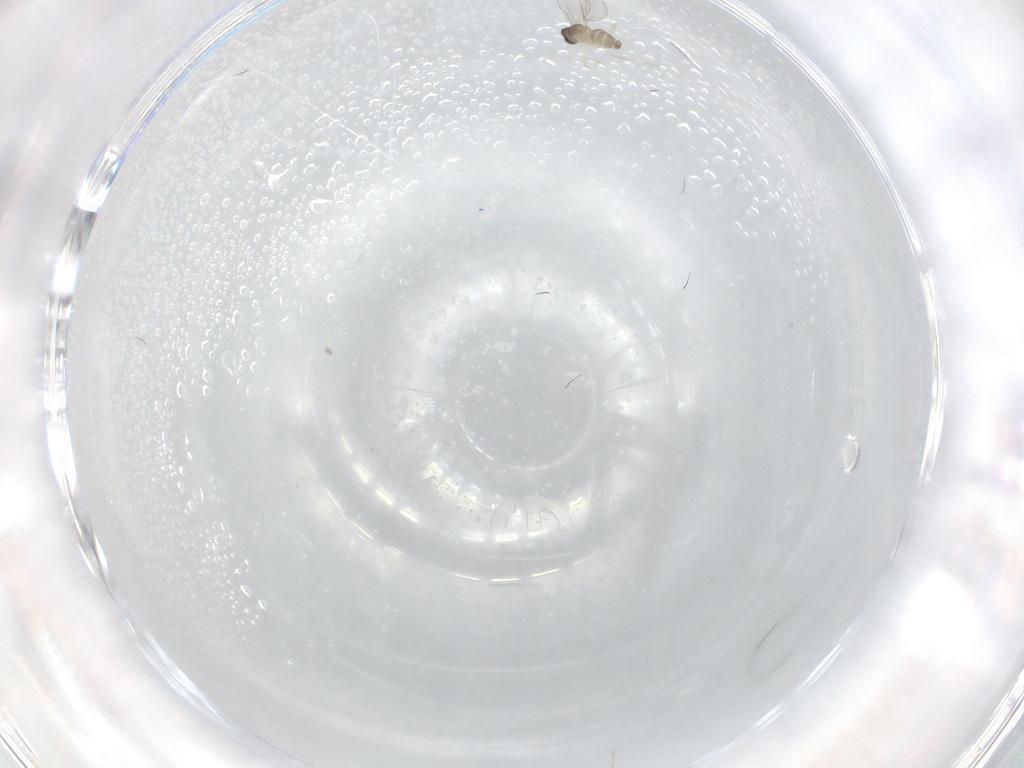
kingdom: Animalia
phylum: Arthropoda
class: Insecta
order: Diptera
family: Cecidomyiidae
